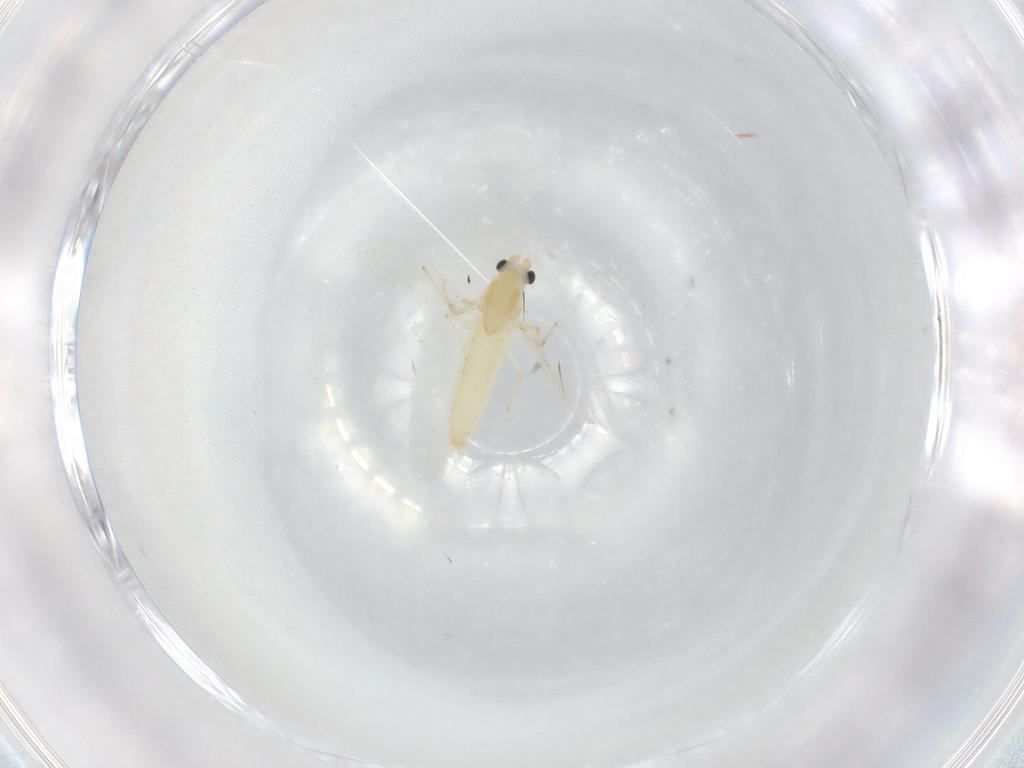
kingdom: Animalia
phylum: Arthropoda
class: Insecta
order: Diptera
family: Chironomidae
